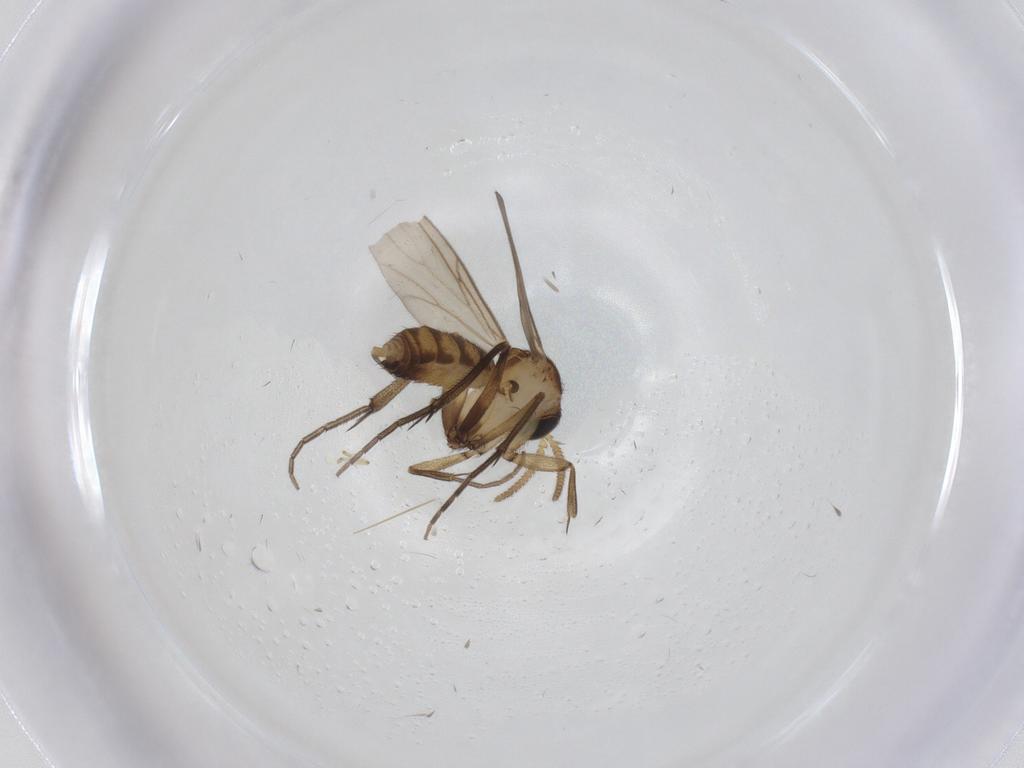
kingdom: Animalia
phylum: Arthropoda
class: Insecta
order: Diptera
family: Mycetophilidae
